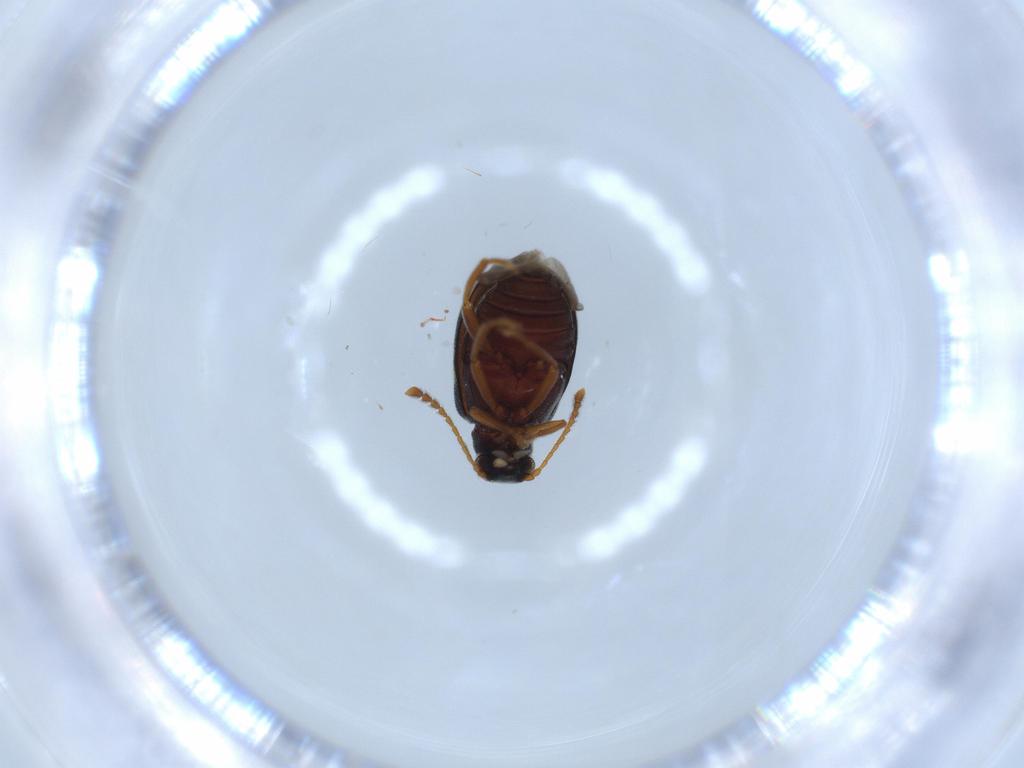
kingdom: Animalia
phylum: Arthropoda
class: Insecta
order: Coleoptera
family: Aderidae
